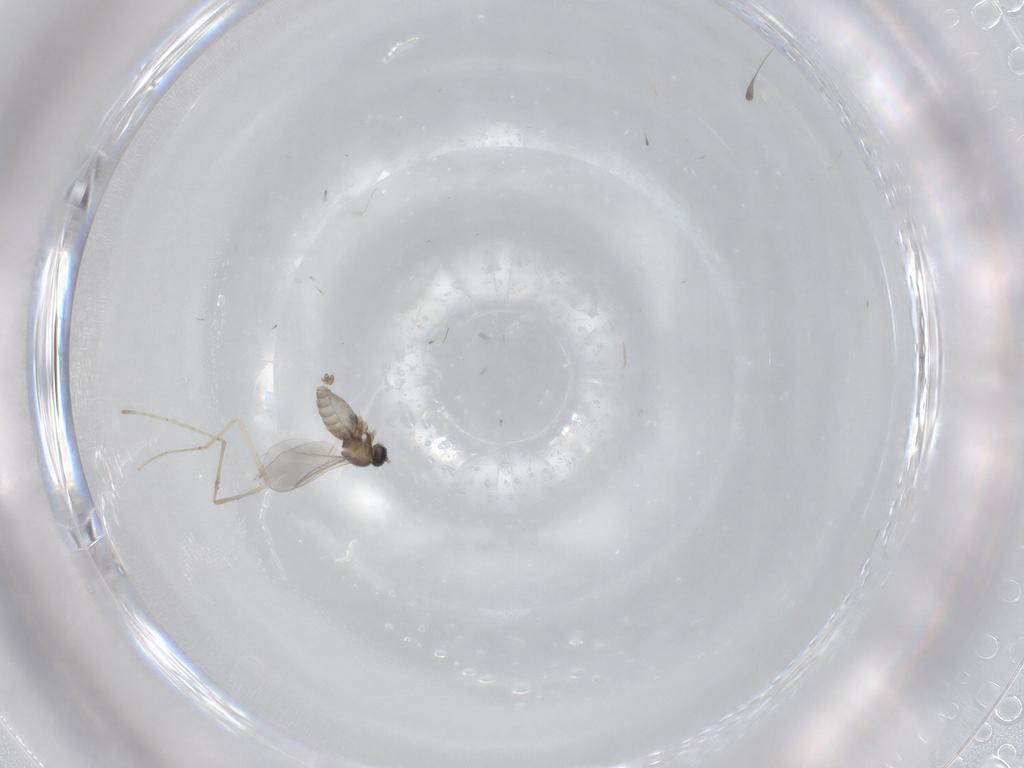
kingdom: Animalia
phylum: Arthropoda
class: Insecta
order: Diptera
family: Cecidomyiidae
